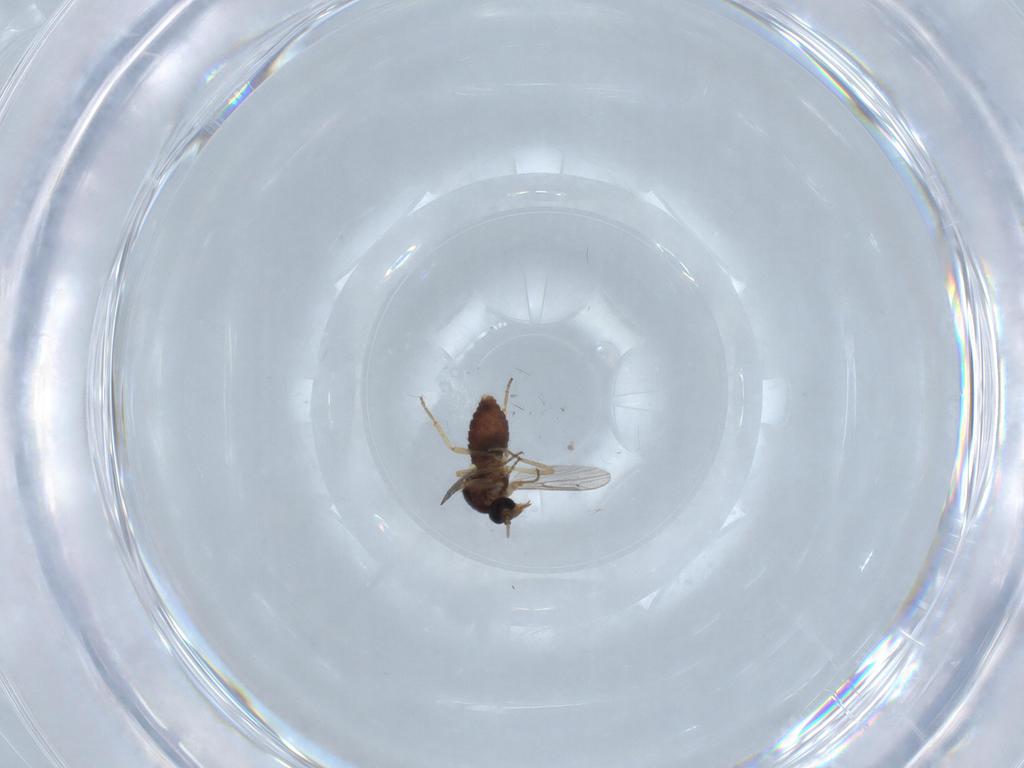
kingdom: Animalia
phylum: Arthropoda
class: Insecta
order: Diptera
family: Ceratopogonidae
